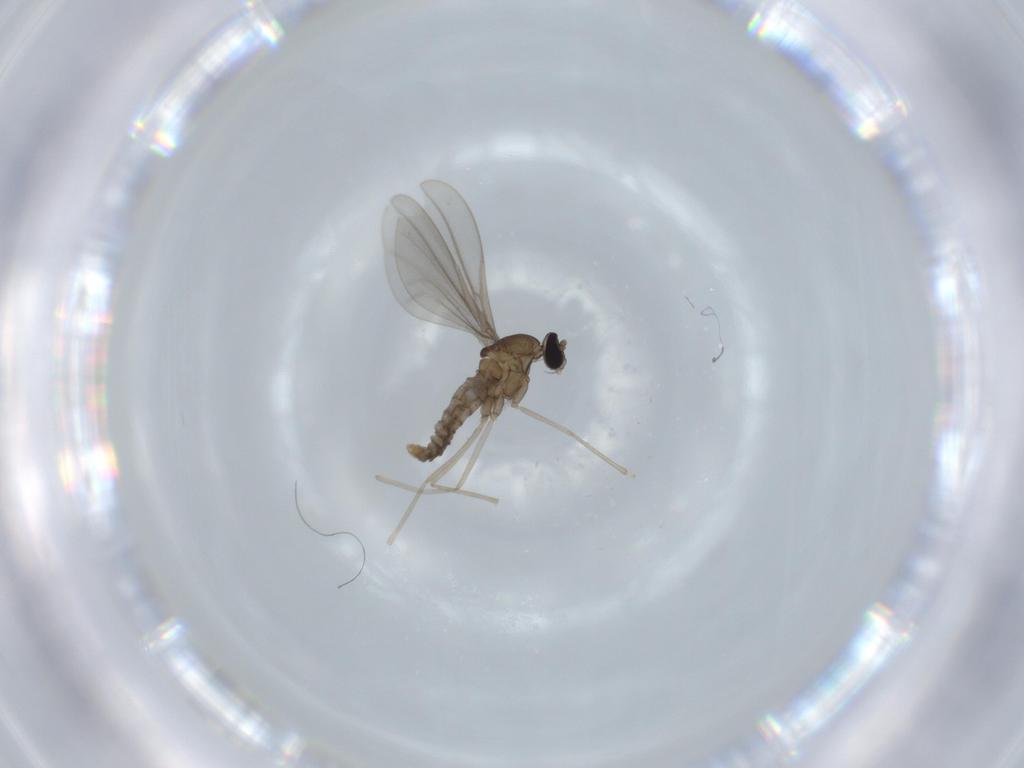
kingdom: Animalia
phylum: Arthropoda
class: Insecta
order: Diptera
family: Cecidomyiidae
